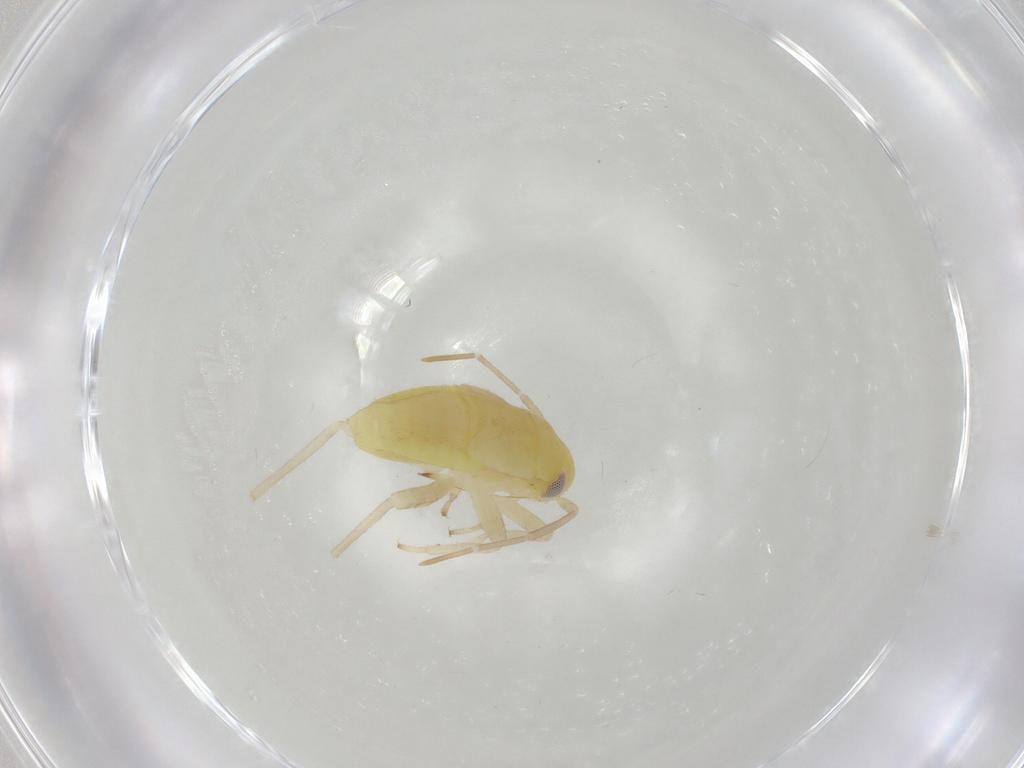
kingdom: Animalia
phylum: Arthropoda
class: Insecta
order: Hemiptera
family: Miridae
